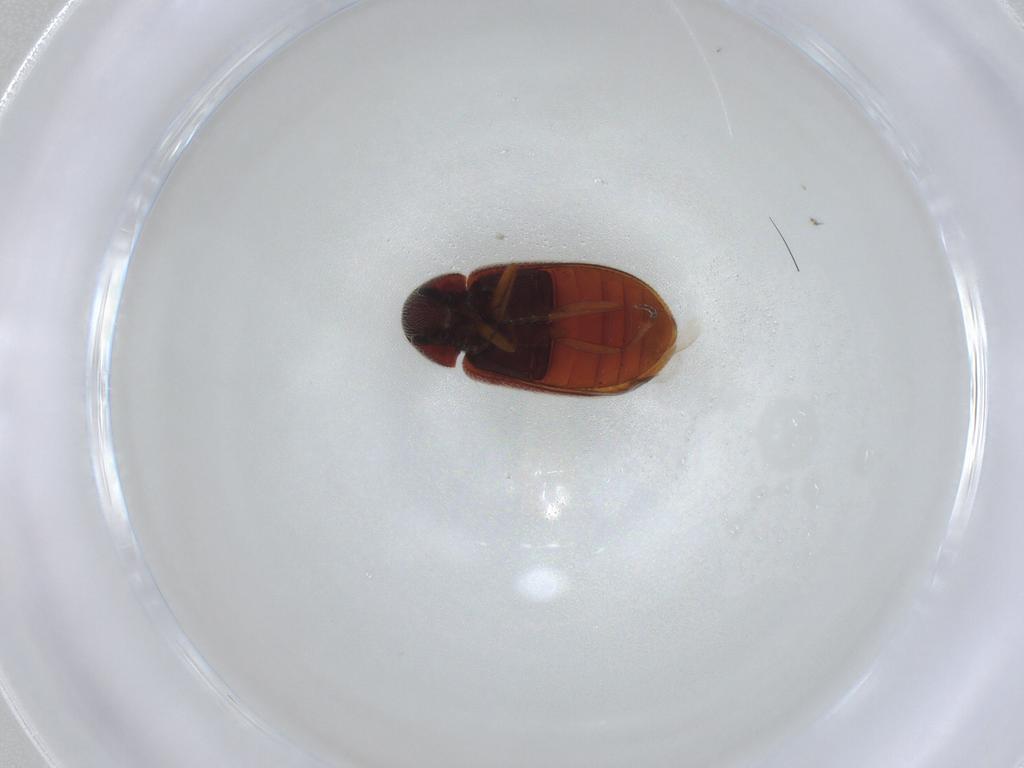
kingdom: Animalia
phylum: Arthropoda
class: Insecta
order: Coleoptera
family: Rhadalidae
